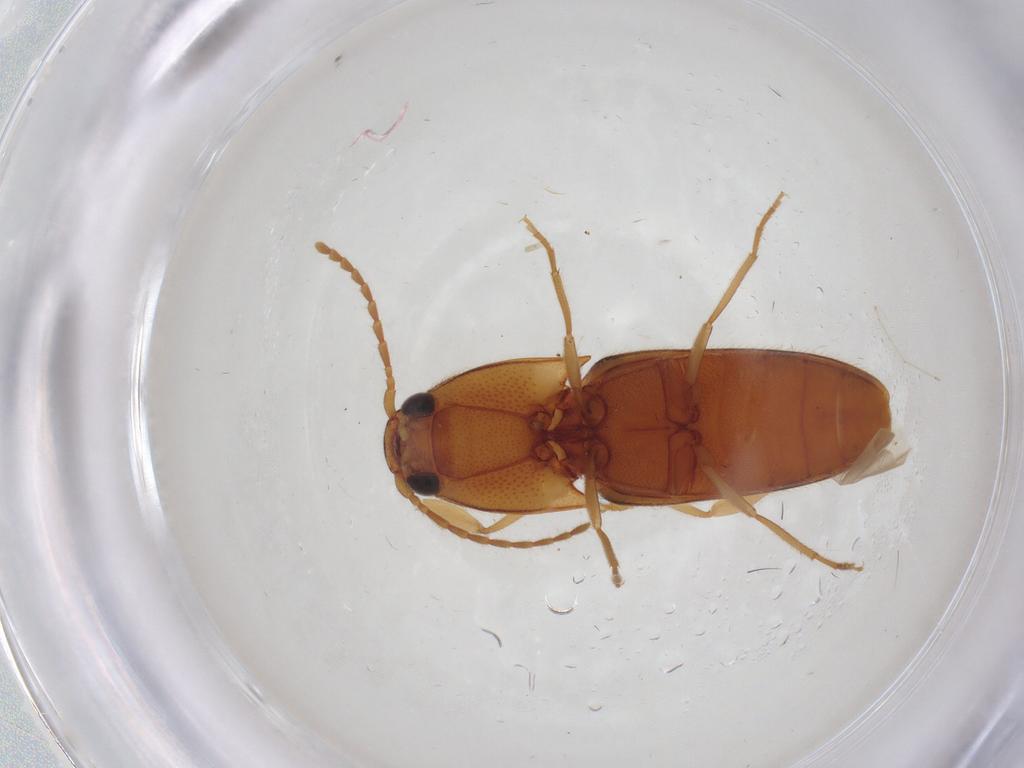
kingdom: Animalia
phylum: Arthropoda
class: Insecta
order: Coleoptera
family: Elateridae
